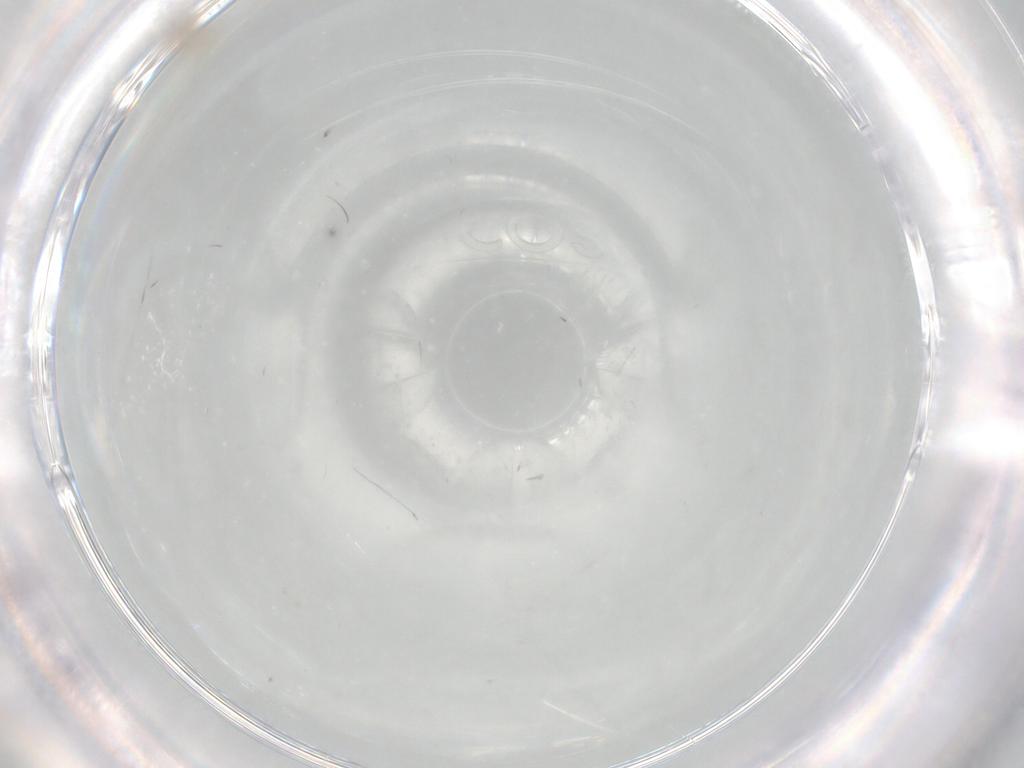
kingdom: Animalia
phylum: Arthropoda
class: Insecta
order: Diptera
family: Cecidomyiidae
